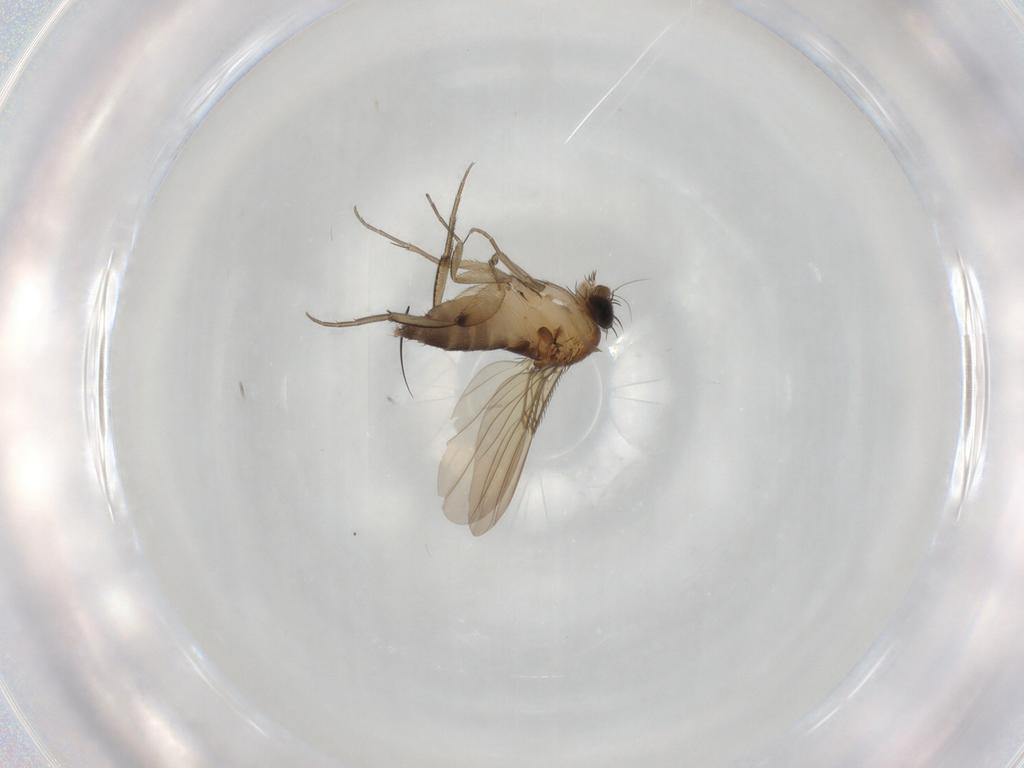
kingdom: Animalia
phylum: Arthropoda
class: Insecta
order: Diptera
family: Phoridae
